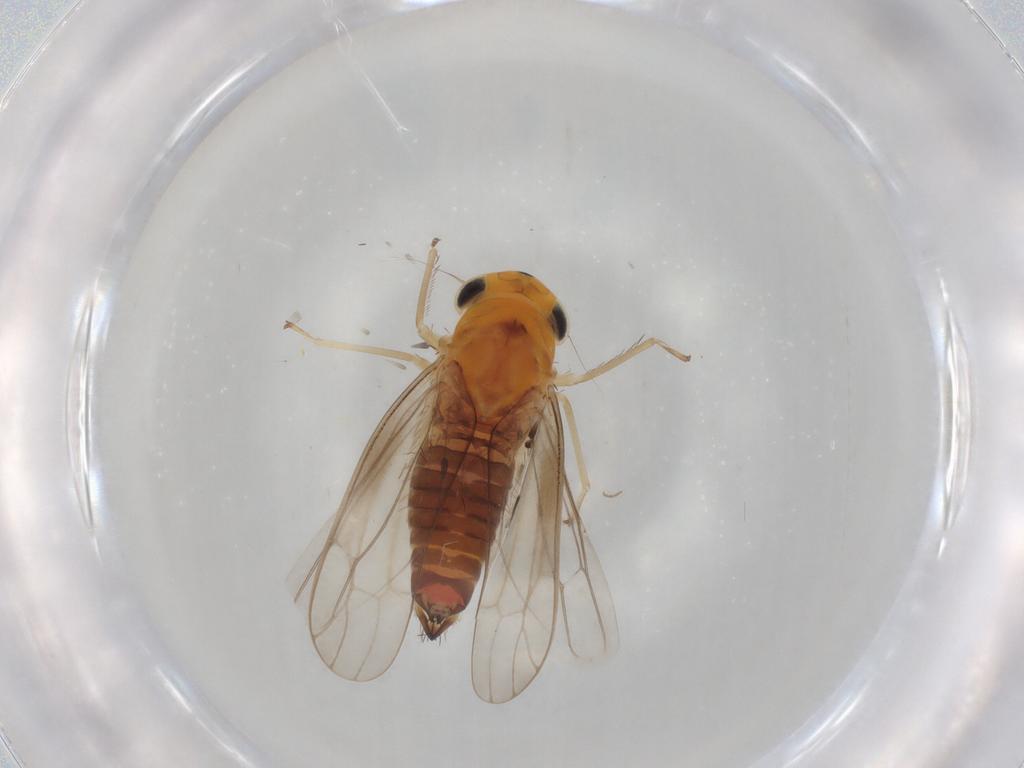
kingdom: Animalia
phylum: Arthropoda
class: Insecta
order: Hemiptera
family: Cicadellidae
